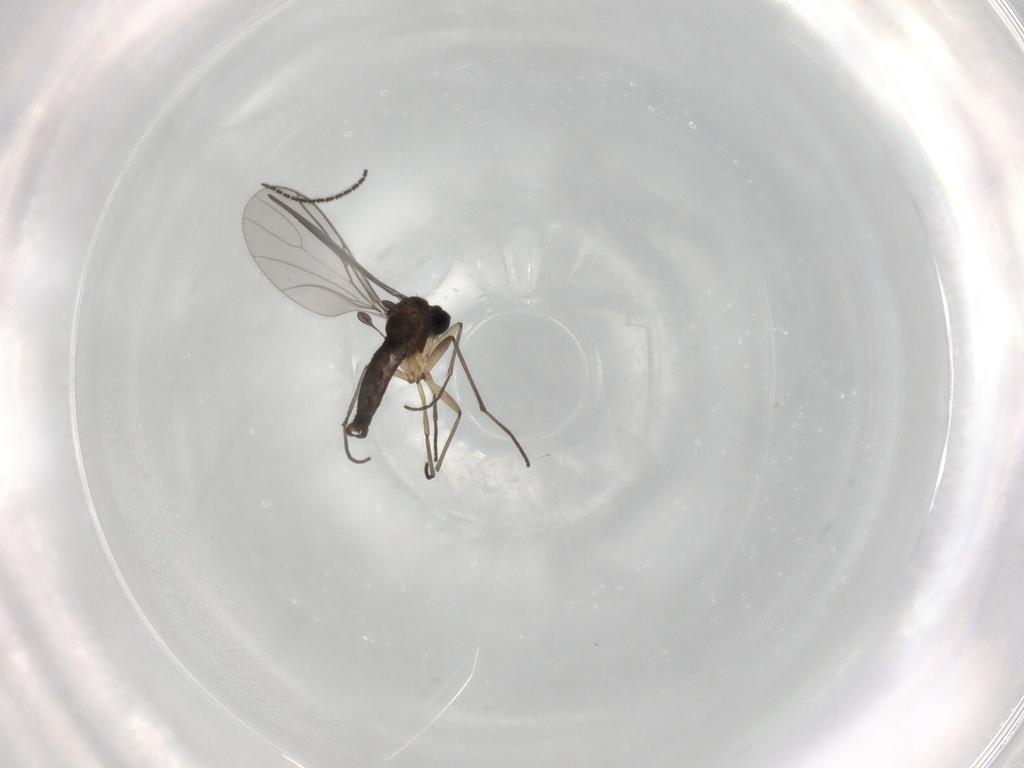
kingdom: Animalia
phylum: Arthropoda
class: Insecta
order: Diptera
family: Sciaridae
